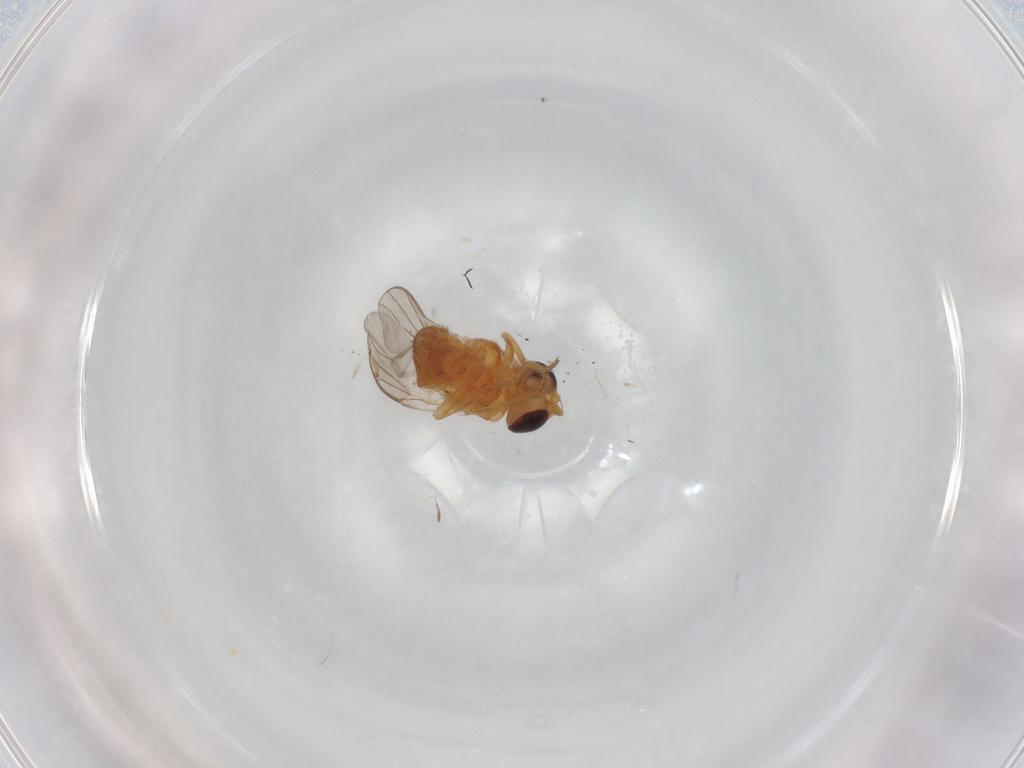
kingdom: Animalia
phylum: Arthropoda
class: Insecta
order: Diptera
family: Chloropidae
